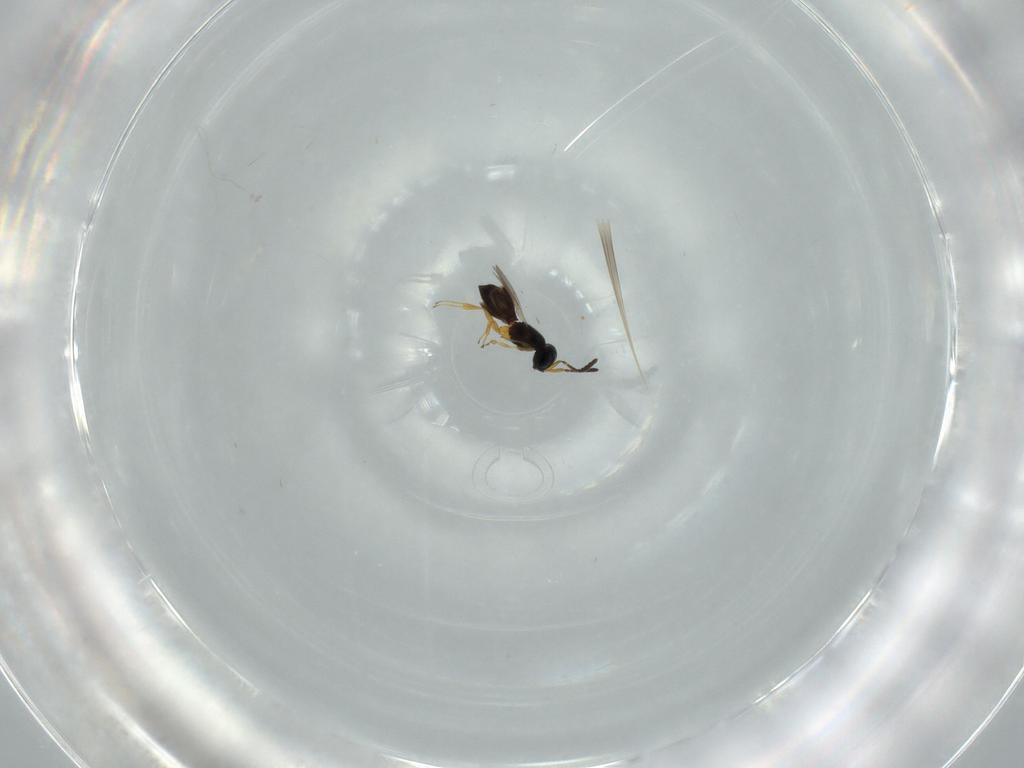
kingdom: Animalia
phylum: Arthropoda
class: Insecta
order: Hymenoptera
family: Scelionidae
